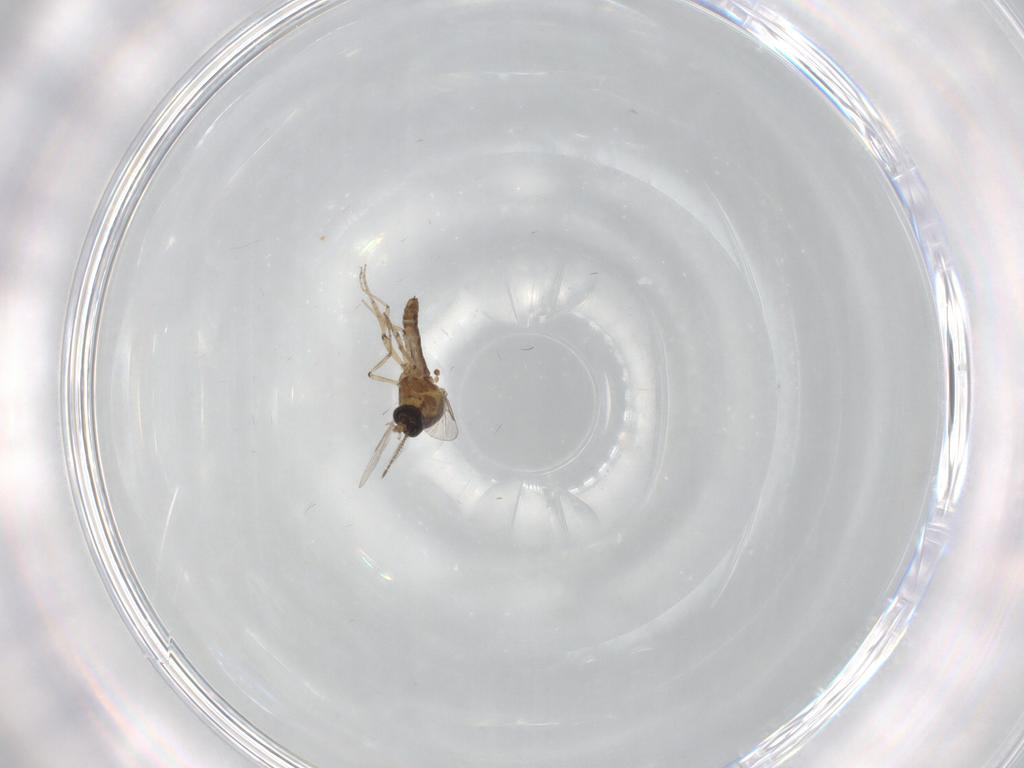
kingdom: Animalia
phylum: Arthropoda
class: Insecta
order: Diptera
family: Ceratopogonidae
